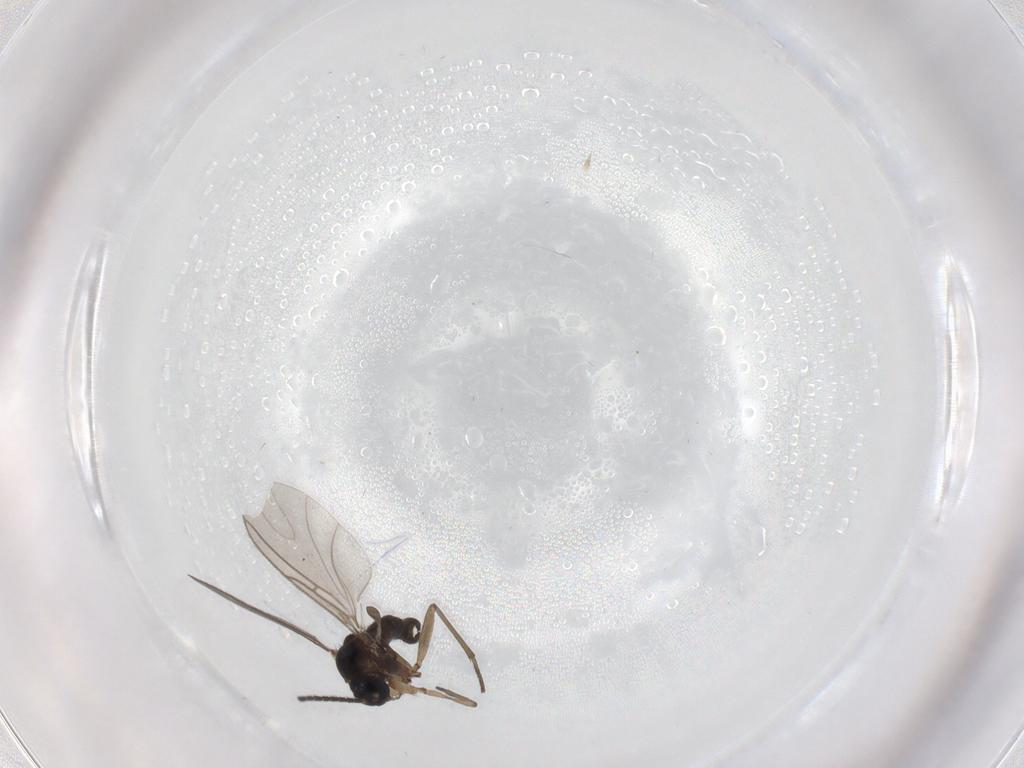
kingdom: Animalia
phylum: Arthropoda
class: Insecta
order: Diptera
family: Sciaridae
